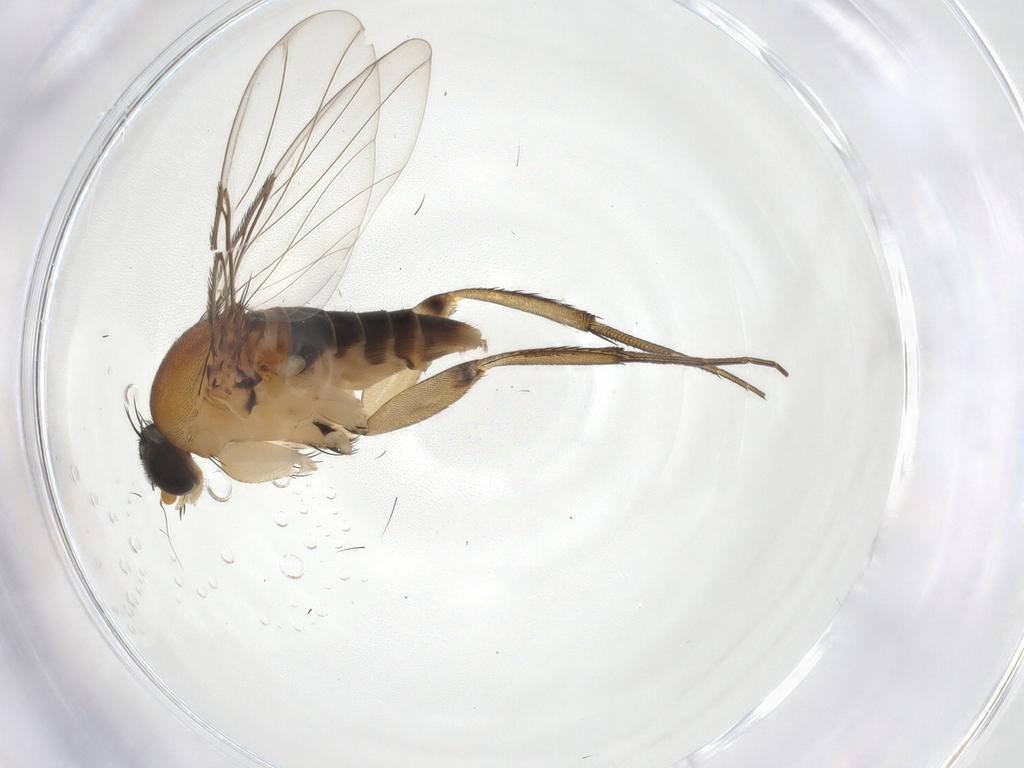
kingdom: Animalia
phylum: Arthropoda
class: Insecta
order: Diptera
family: Phoridae
